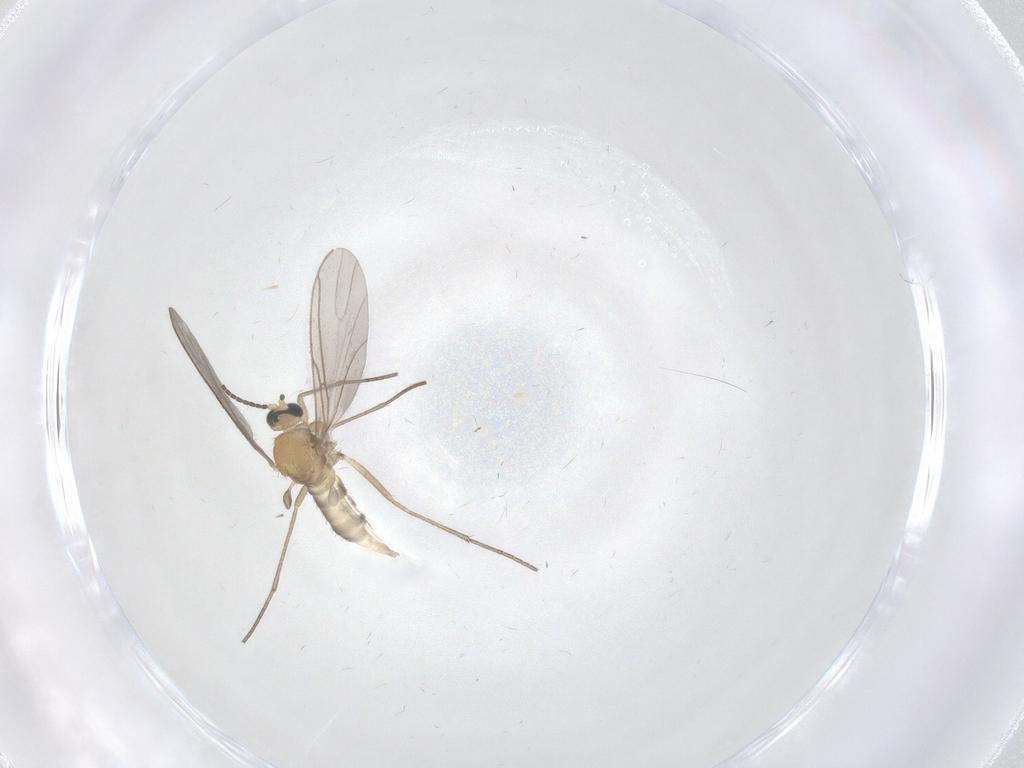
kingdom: Animalia
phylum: Arthropoda
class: Insecta
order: Diptera
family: Sciaridae
